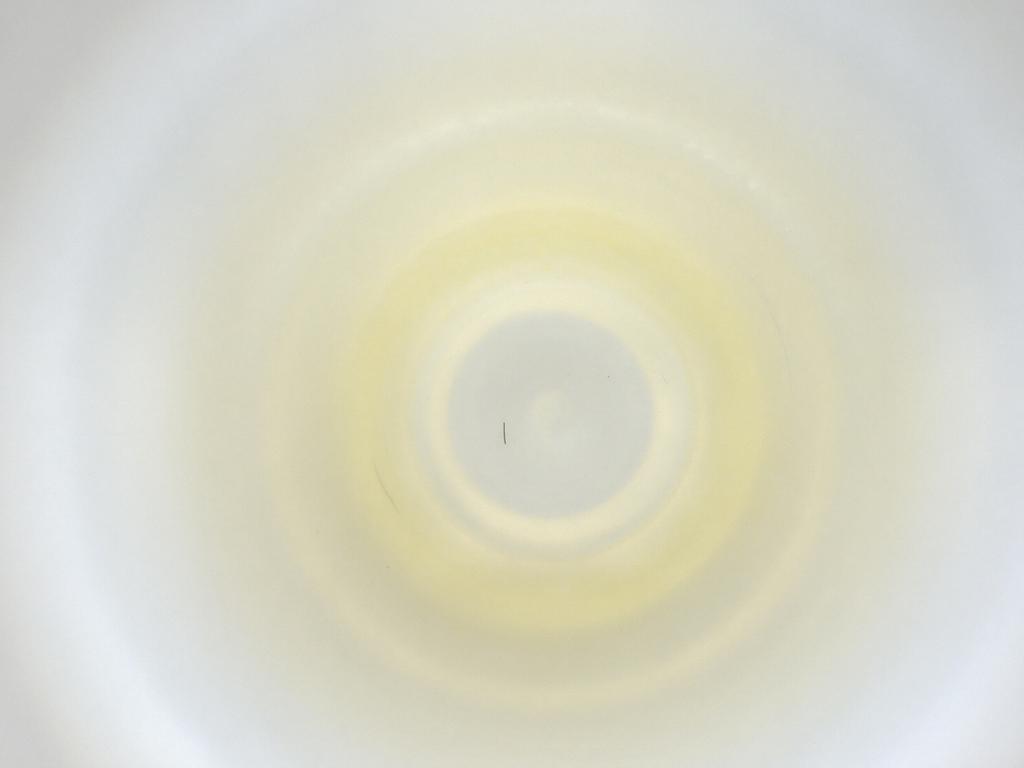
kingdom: Animalia
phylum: Arthropoda
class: Insecta
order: Diptera
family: Cecidomyiidae
